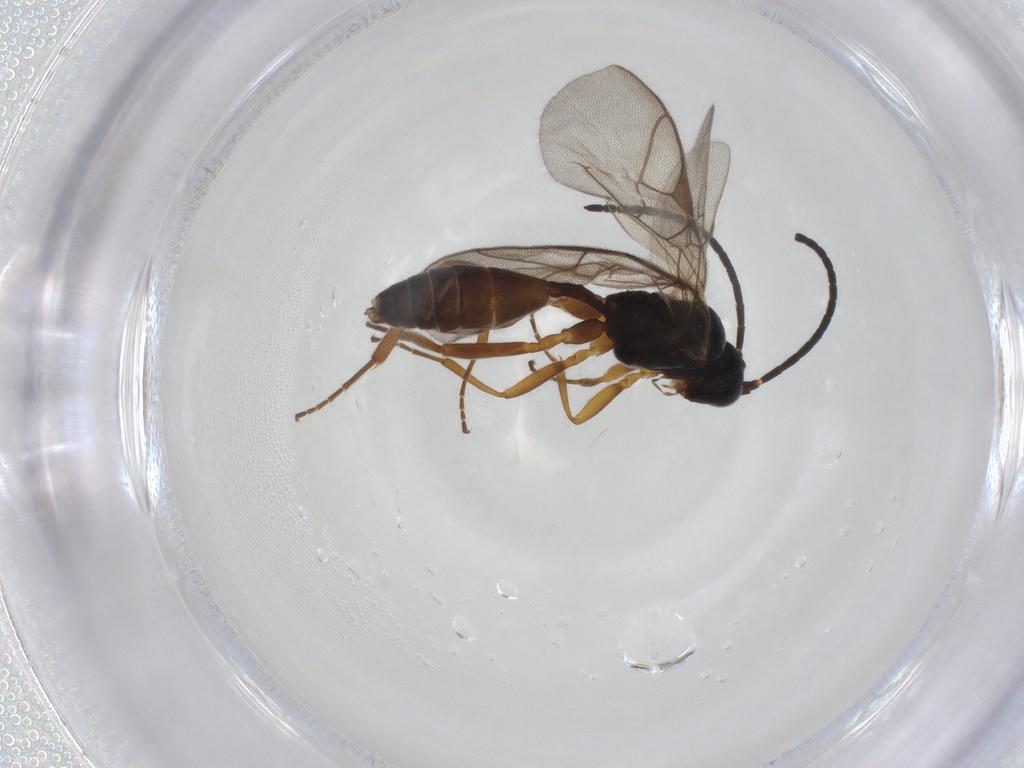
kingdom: Animalia
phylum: Arthropoda
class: Insecta
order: Hymenoptera
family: Ichneumonidae
